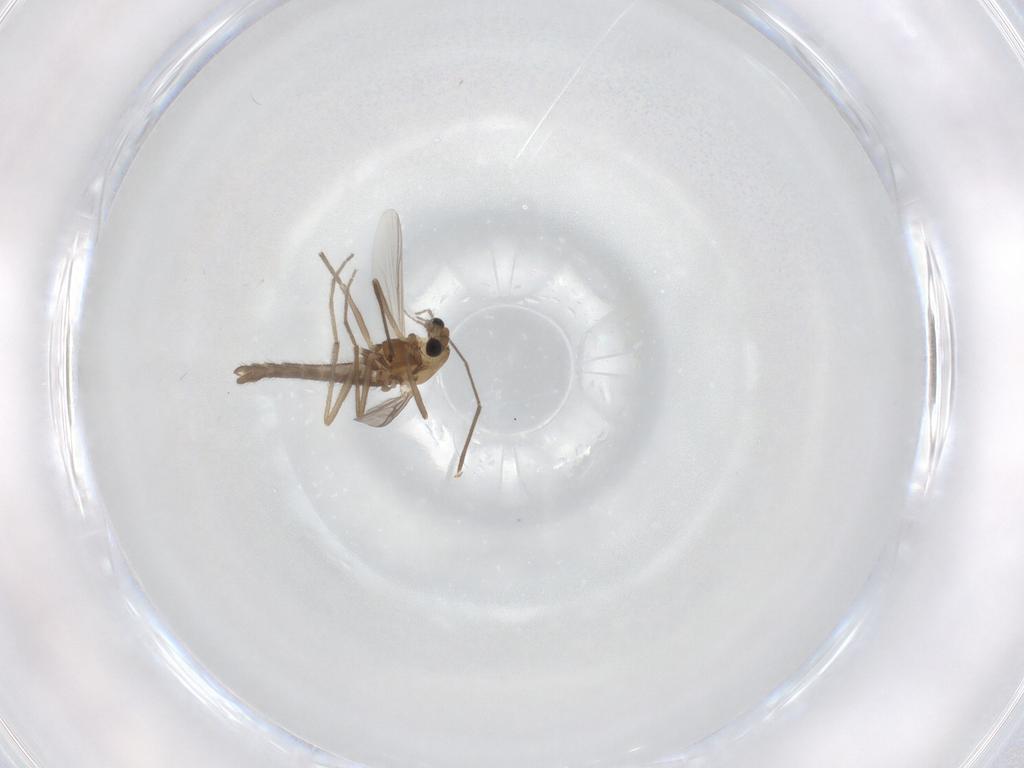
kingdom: Animalia
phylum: Arthropoda
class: Insecta
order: Diptera
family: Chironomidae
